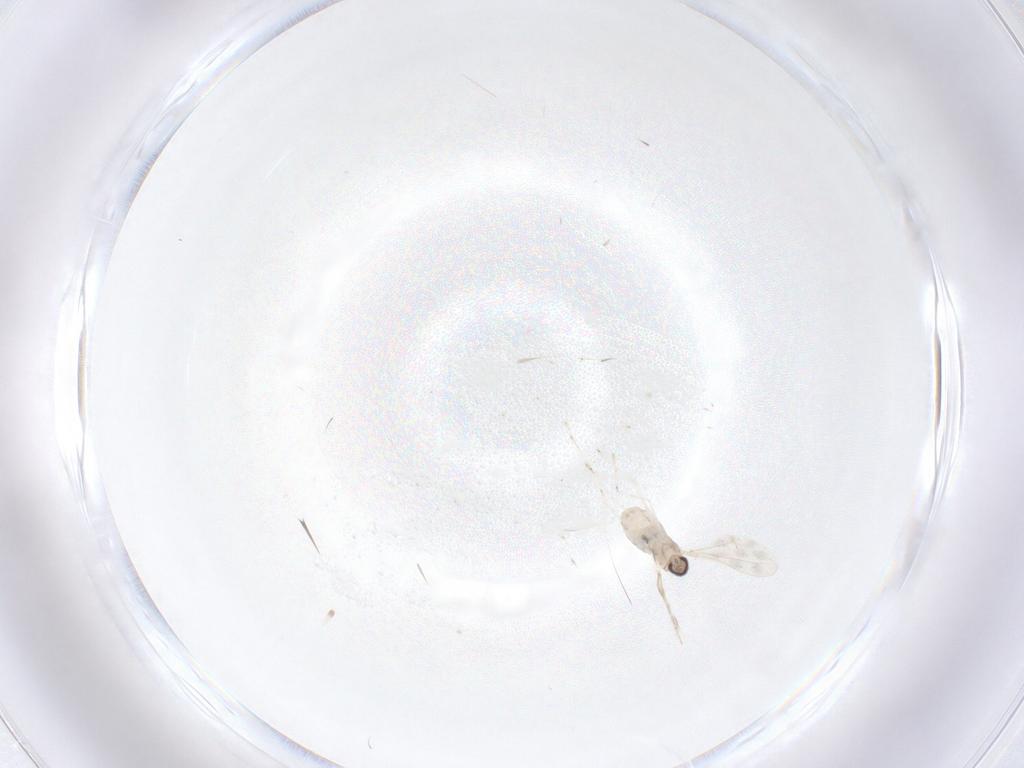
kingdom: Animalia
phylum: Arthropoda
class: Insecta
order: Diptera
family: Cecidomyiidae
